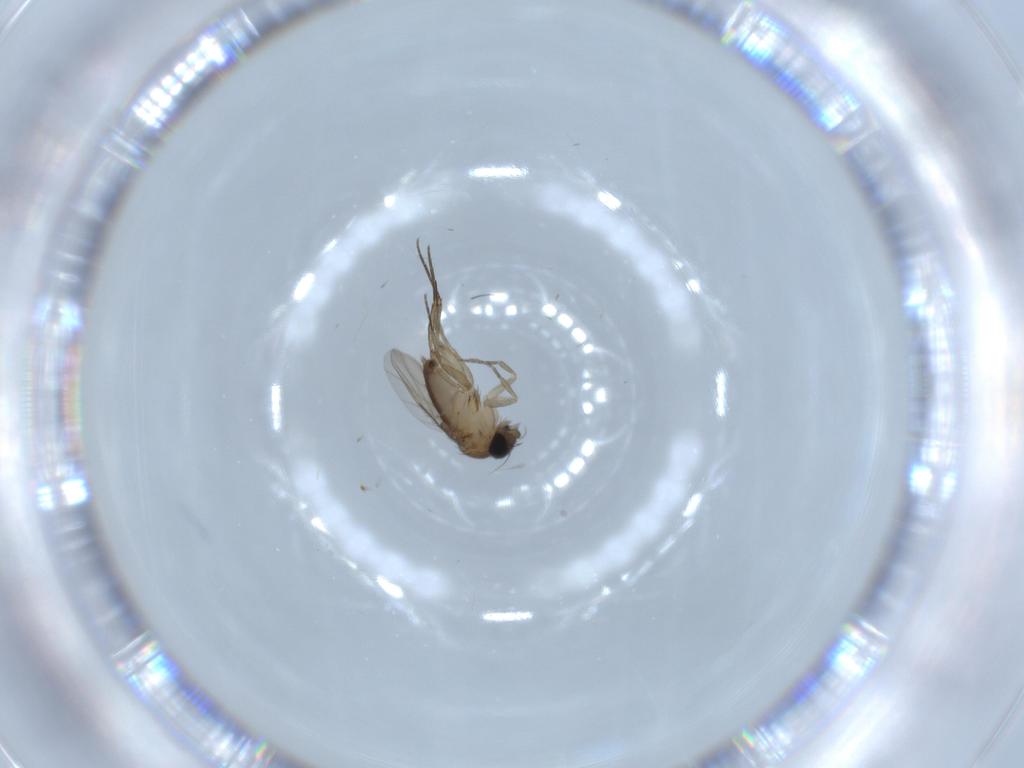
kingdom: Animalia
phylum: Arthropoda
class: Insecta
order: Diptera
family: Phoridae
